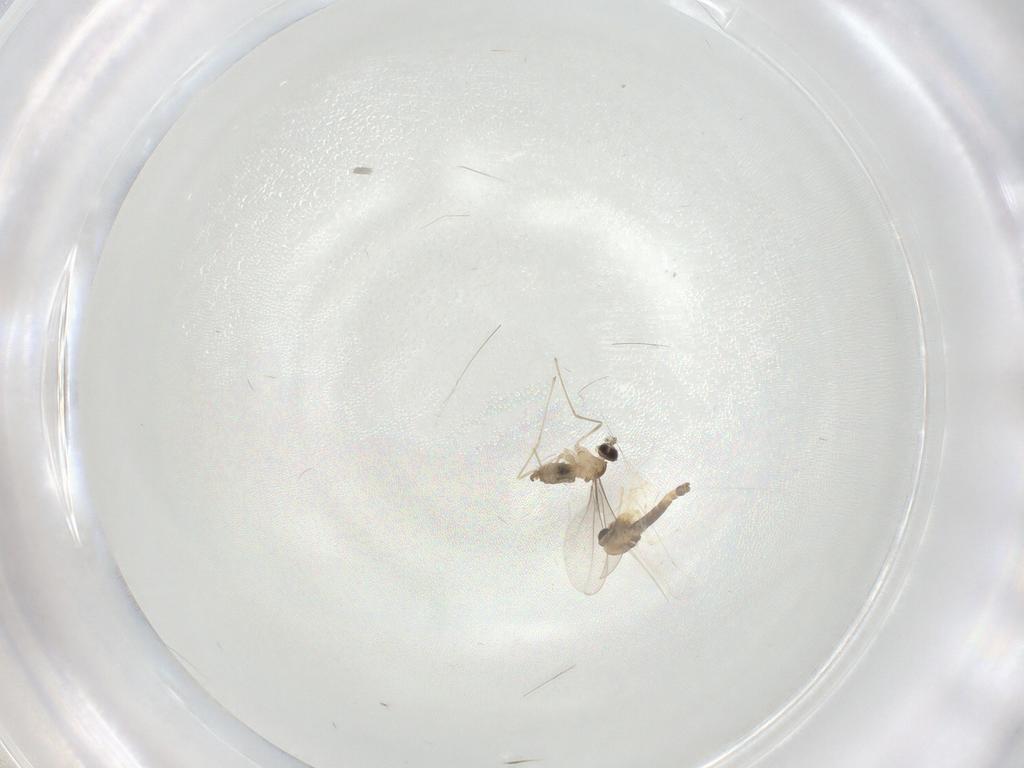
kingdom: Animalia
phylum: Arthropoda
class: Insecta
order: Diptera
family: Cecidomyiidae
